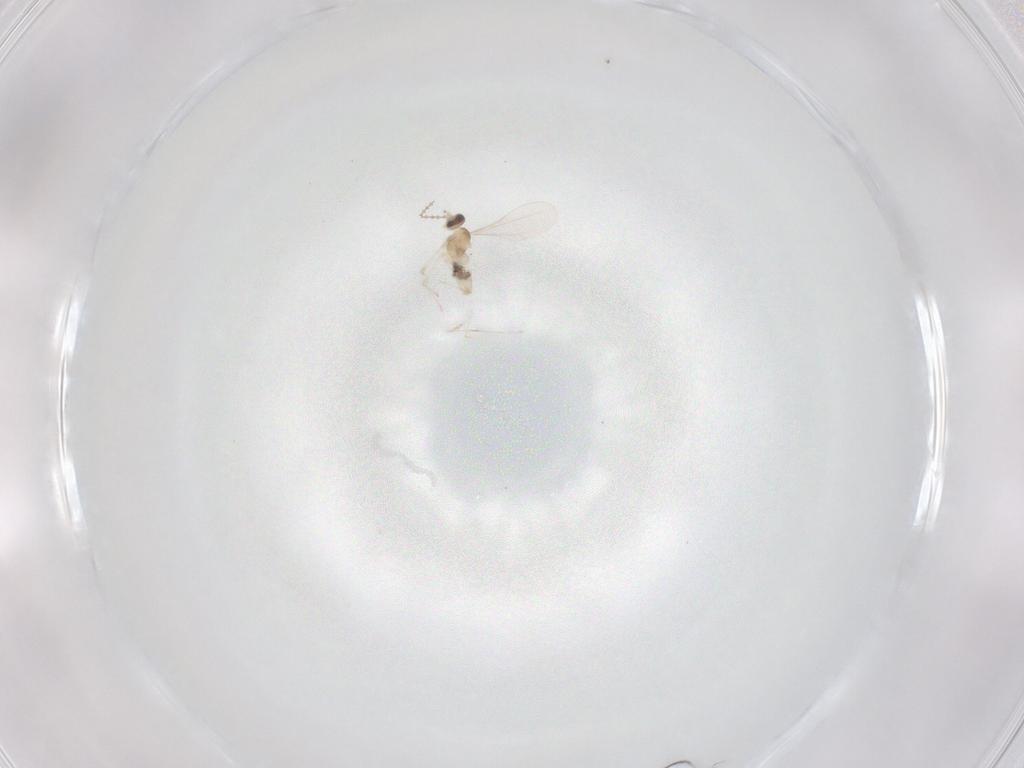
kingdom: Animalia
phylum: Arthropoda
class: Insecta
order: Diptera
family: Cecidomyiidae
